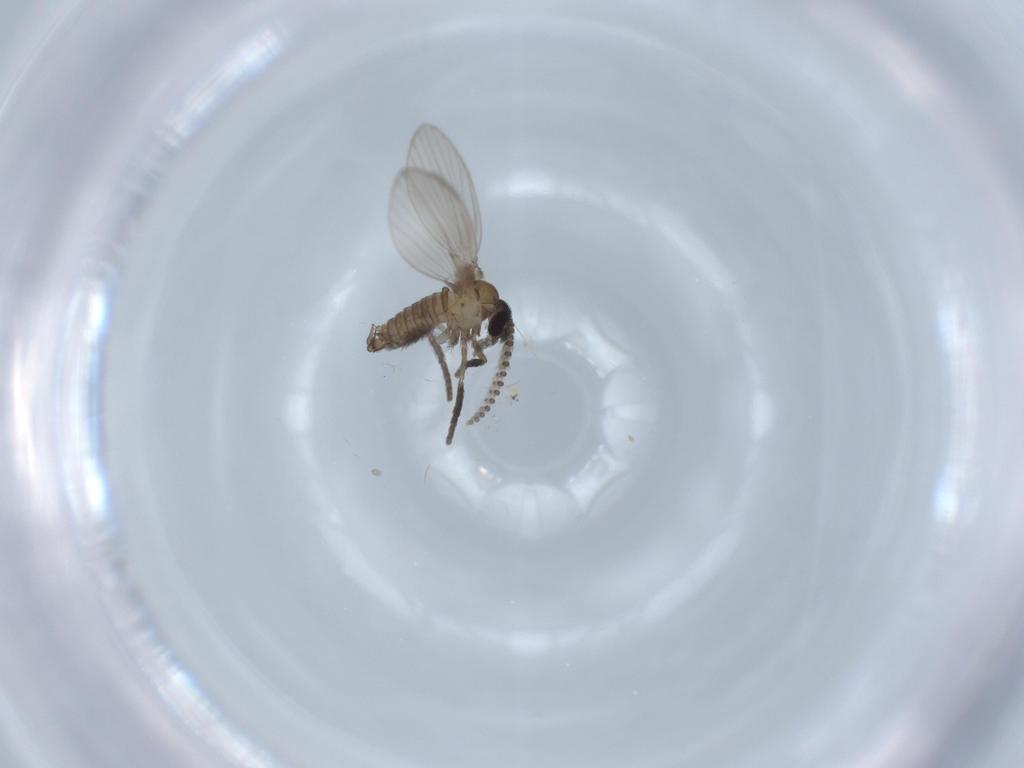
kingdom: Animalia
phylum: Arthropoda
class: Insecta
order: Diptera
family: Psychodidae
